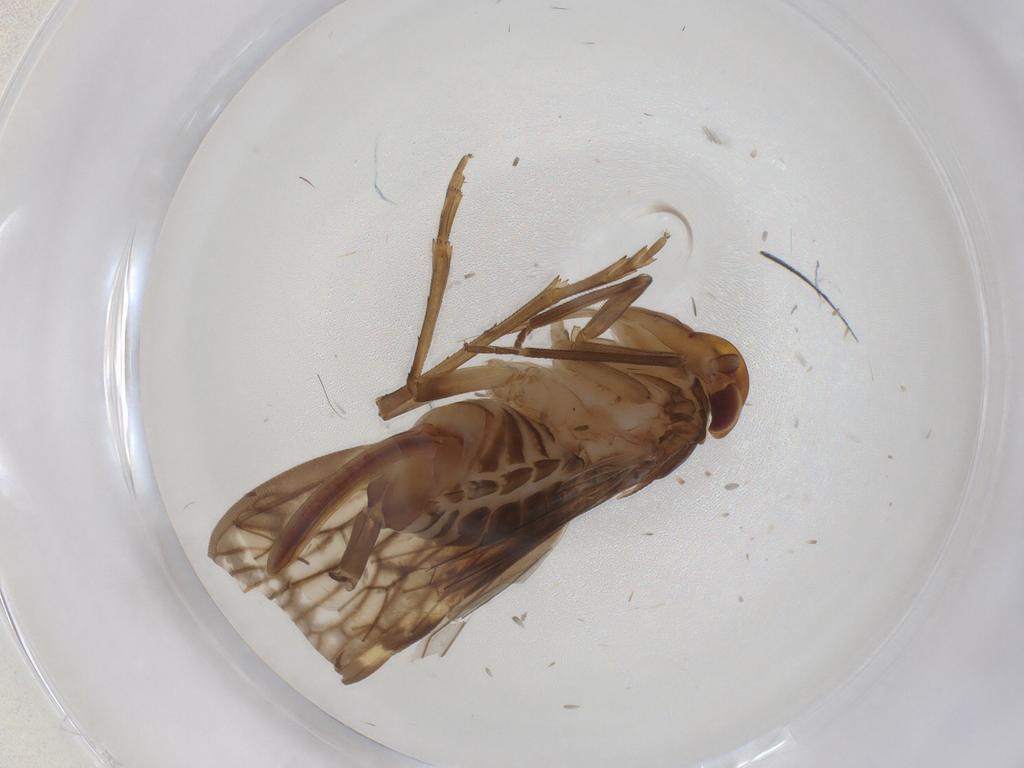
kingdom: Animalia
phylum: Arthropoda
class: Insecta
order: Hemiptera
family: Cixiidae
